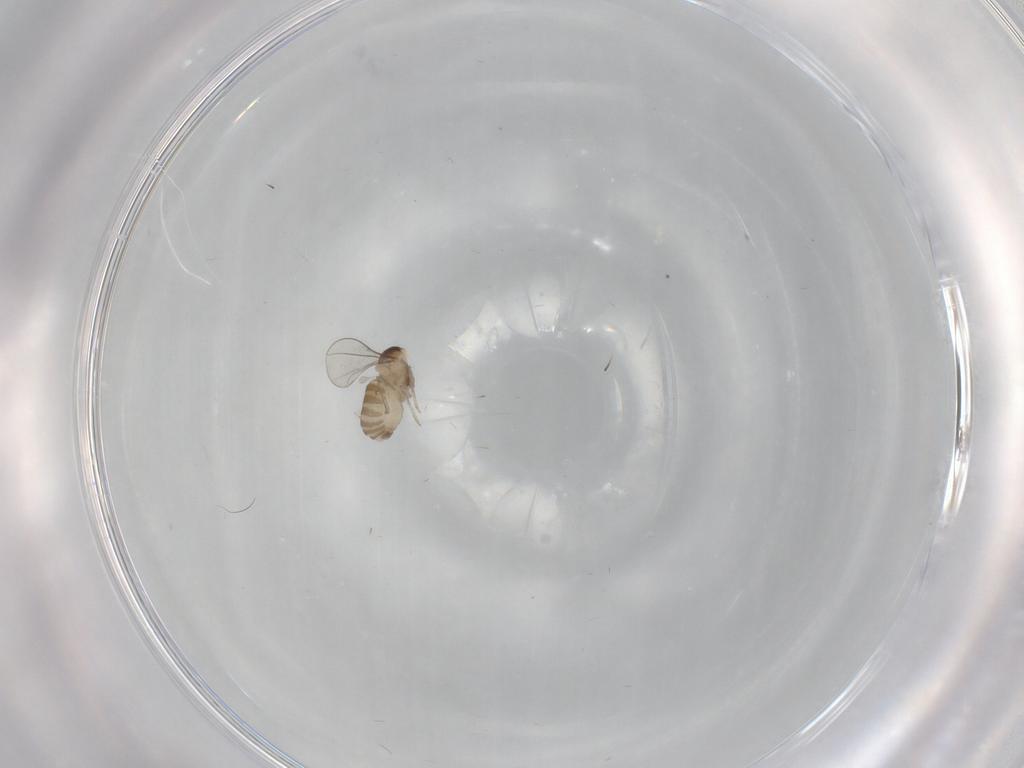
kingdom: Animalia
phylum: Arthropoda
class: Insecta
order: Diptera
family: Cecidomyiidae
